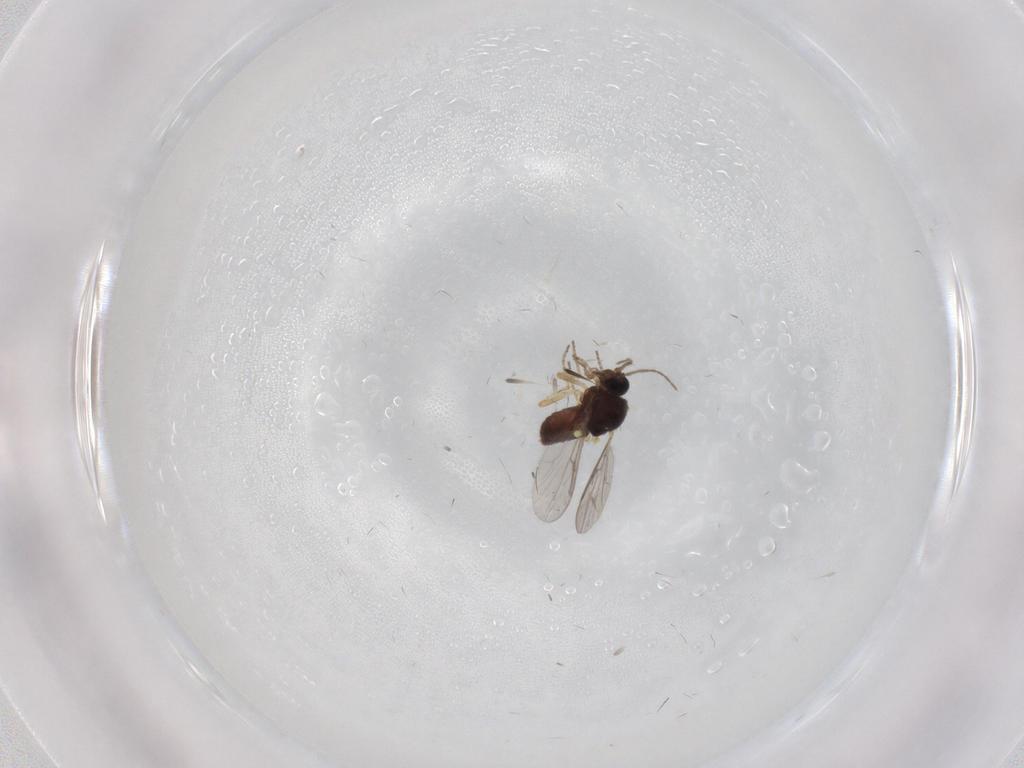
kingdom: Animalia
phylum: Arthropoda
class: Insecta
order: Diptera
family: Ceratopogonidae
